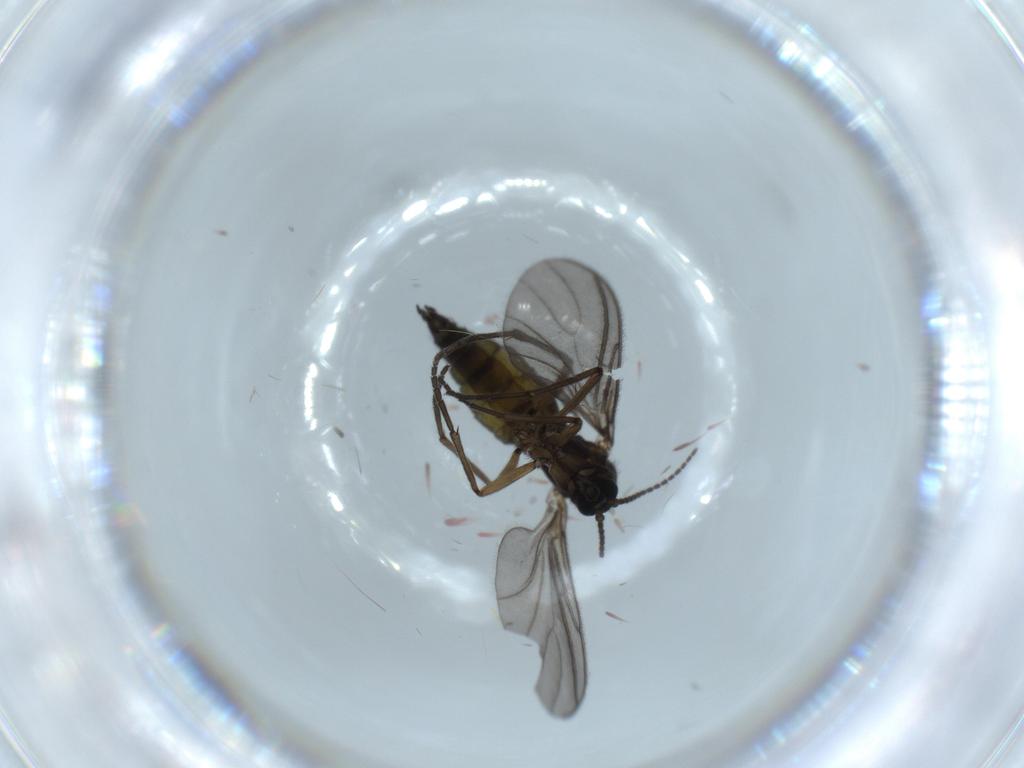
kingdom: Animalia
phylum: Arthropoda
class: Insecta
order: Diptera
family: Sciaridae
